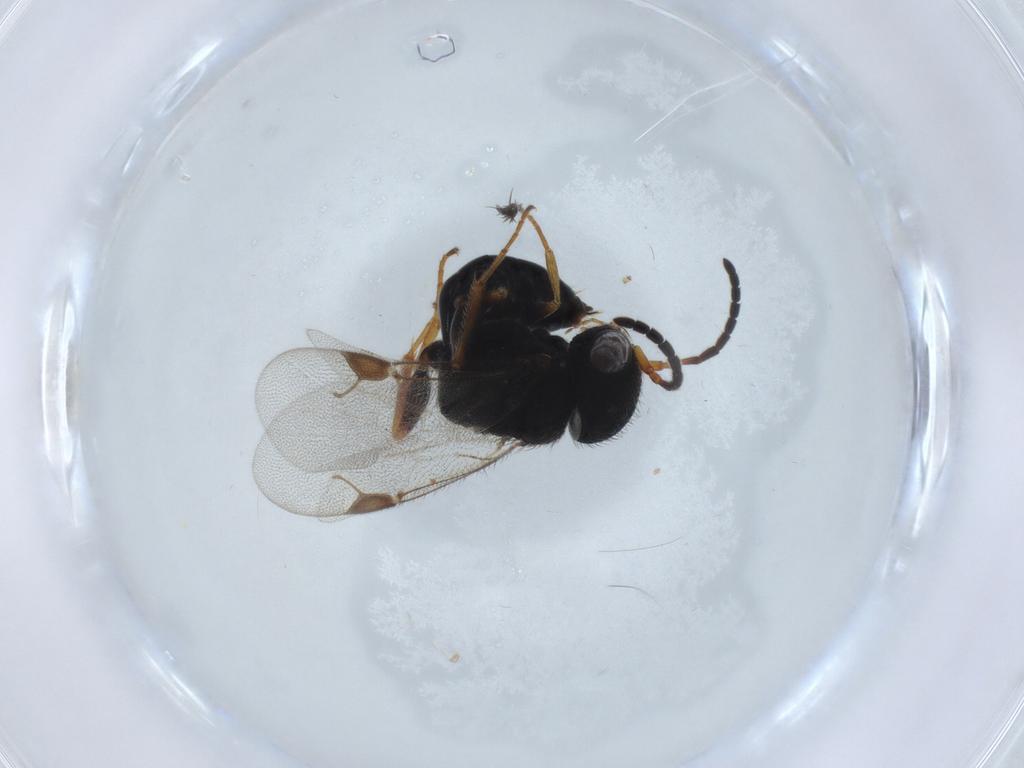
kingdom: Animalia
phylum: Arthropoda
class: Insecta
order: Hymenoptera
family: Dryinidae
